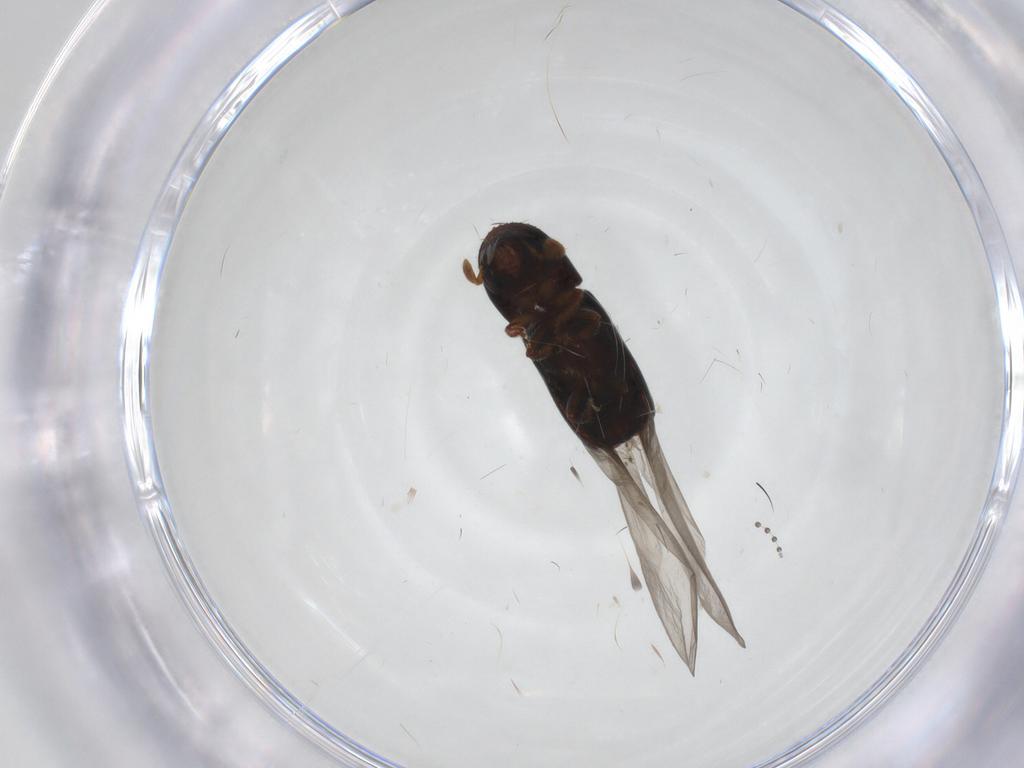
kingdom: Animalia
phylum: Arthropoda
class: Insecta
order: Coleoptera
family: Curculionidae
